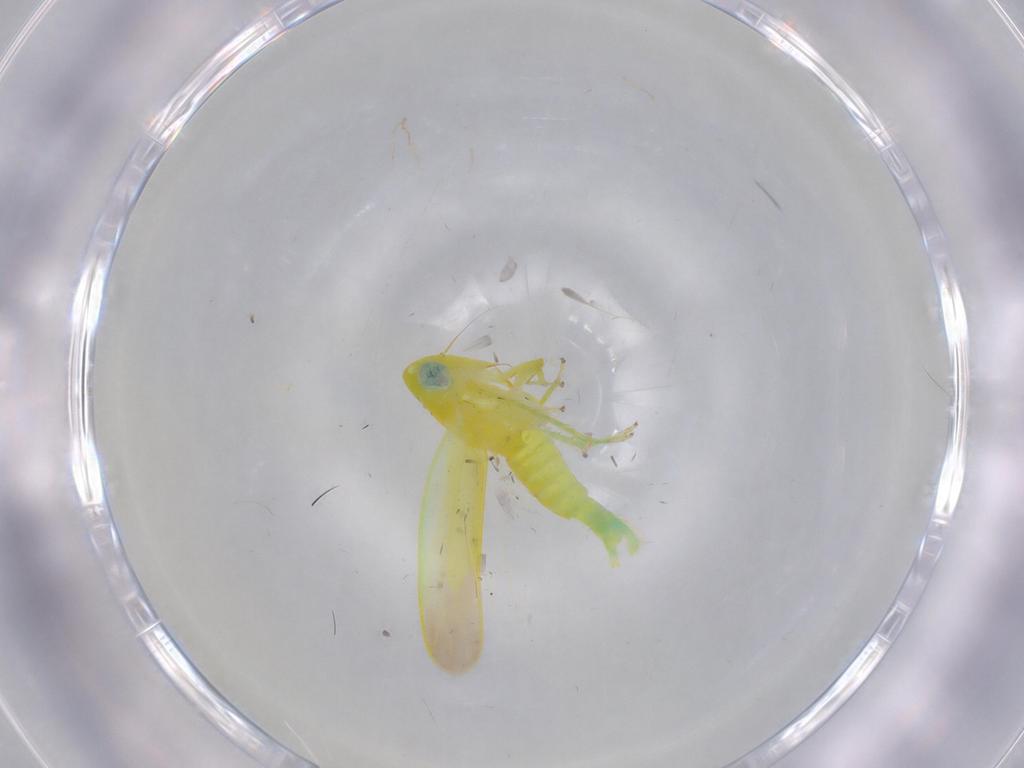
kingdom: Animalia
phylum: Arthropoda
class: Insecta
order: Hemiptera
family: Cicadellidae
